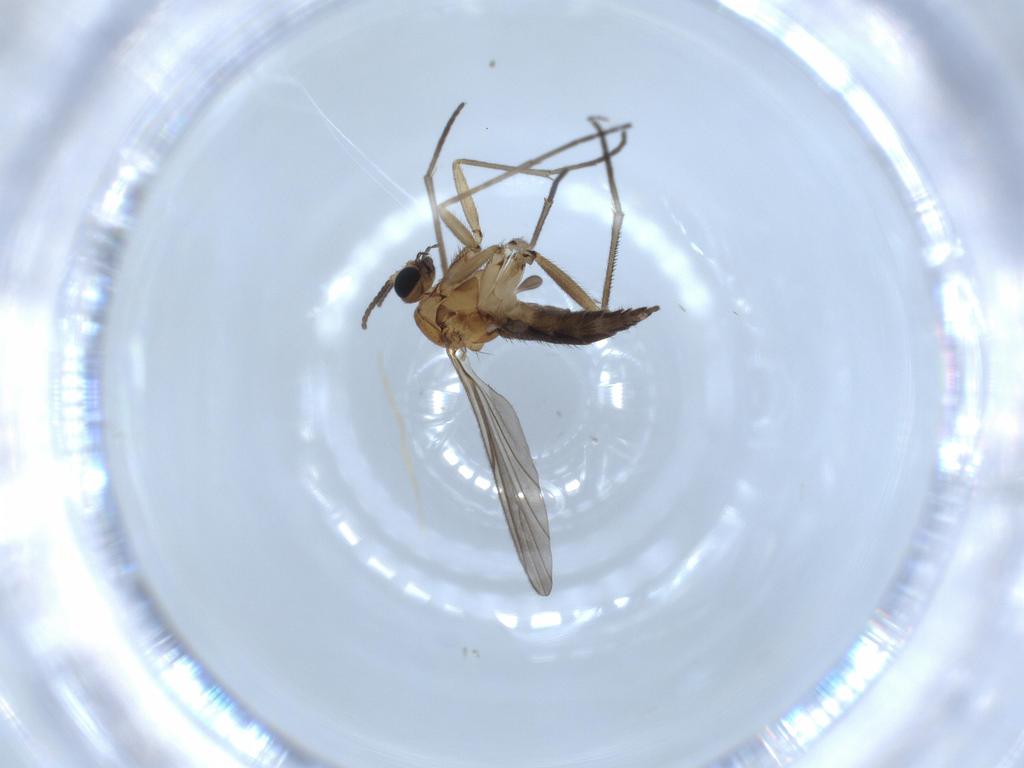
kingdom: Animalia
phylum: Arthropoda
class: Insecta
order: Diptera
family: Sciaridae
